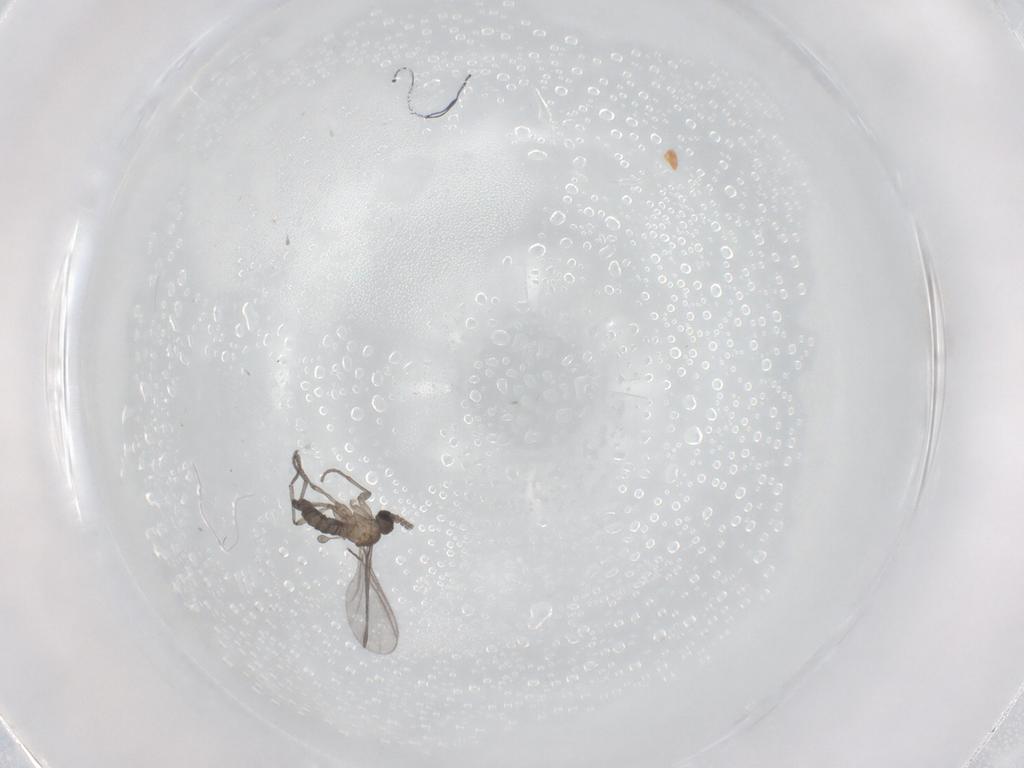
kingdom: Animalia
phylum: Arthropoda
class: Insecta
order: Diptera
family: Sciaridae
